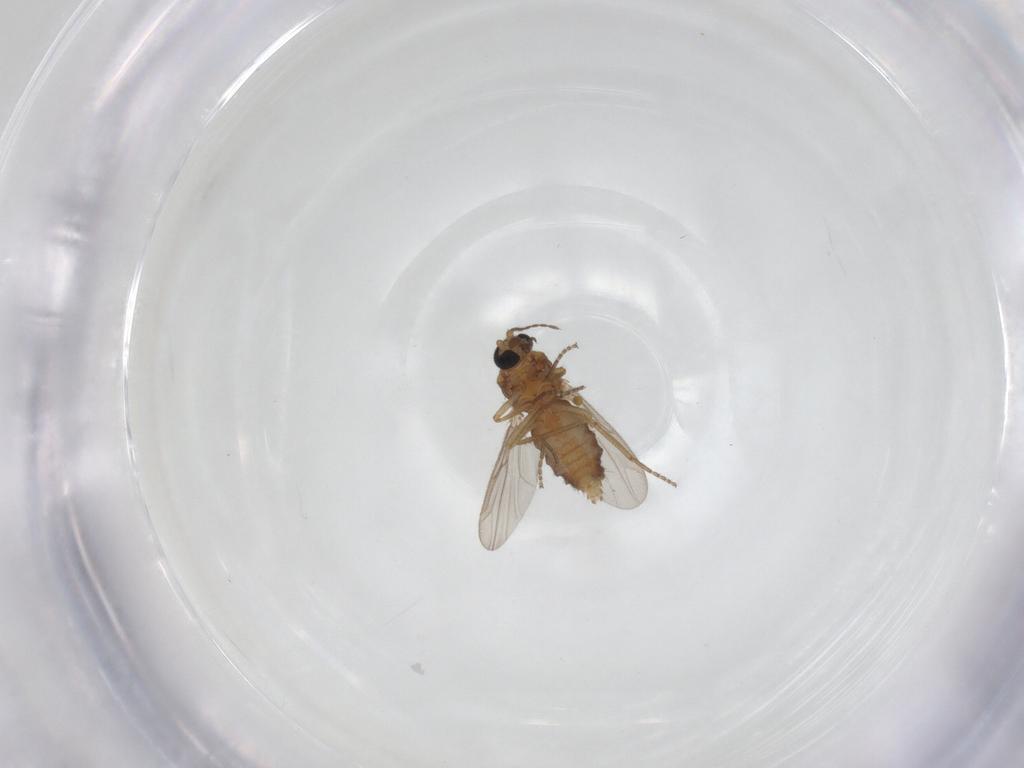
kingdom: Animalia
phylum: Arthropoda
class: Insecta
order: Diptera
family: Ceratopogonidae
